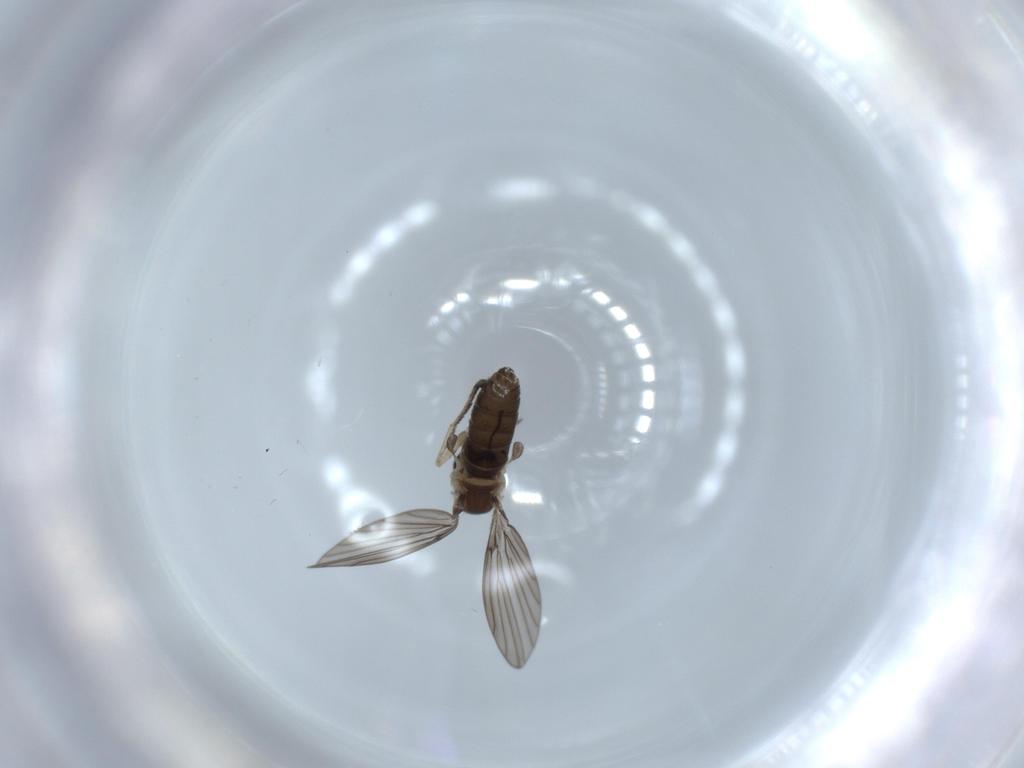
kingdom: Animalia
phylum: Arthropoda
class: Insecta
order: Diptera
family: Psychodidae
